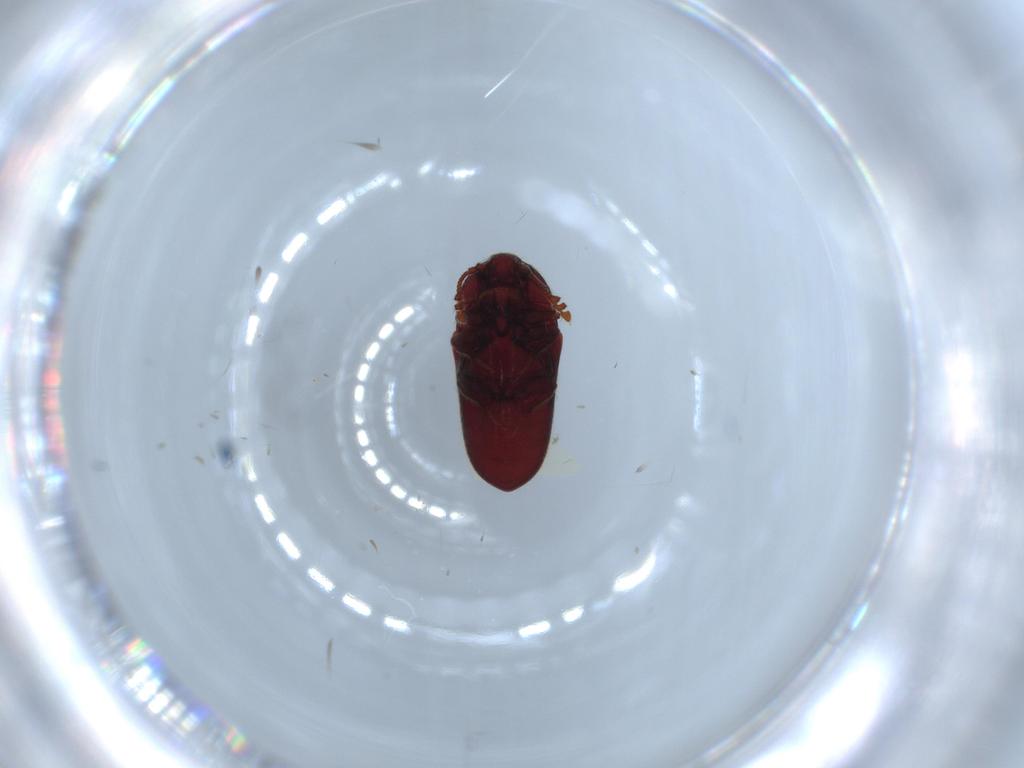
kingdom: Animalia
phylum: Arthropoda
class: Insecta
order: Coleoptera
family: Throscidae
